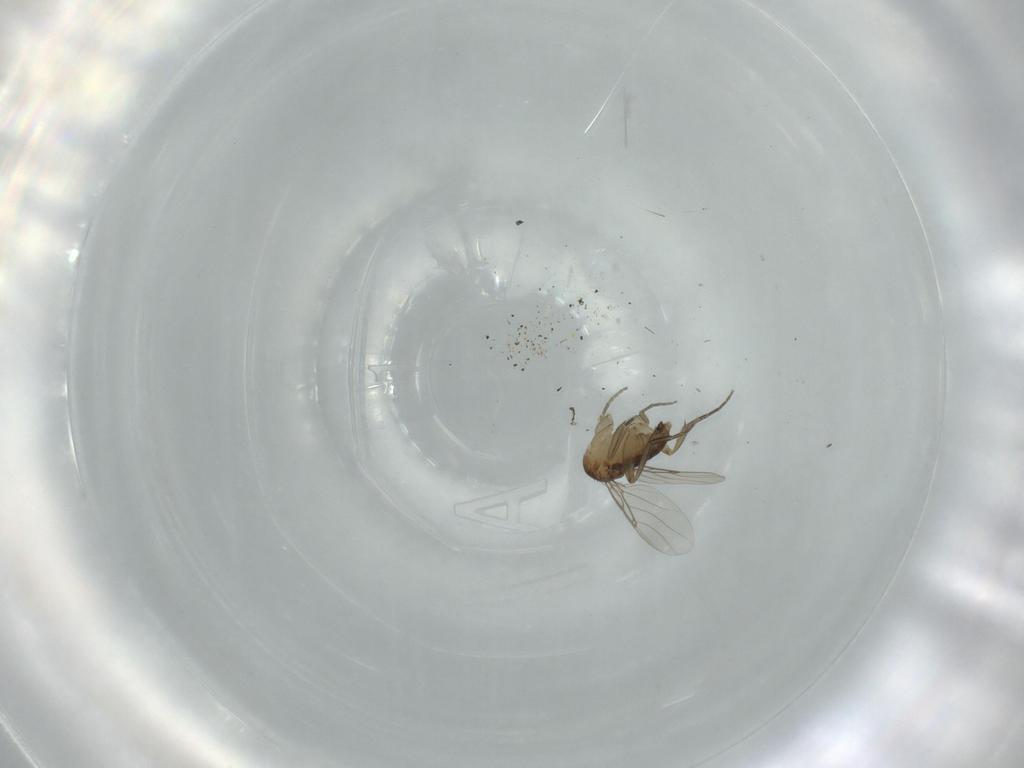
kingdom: Animalia
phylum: Arthropoda
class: Insecta
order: Diptera
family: Phoridae
